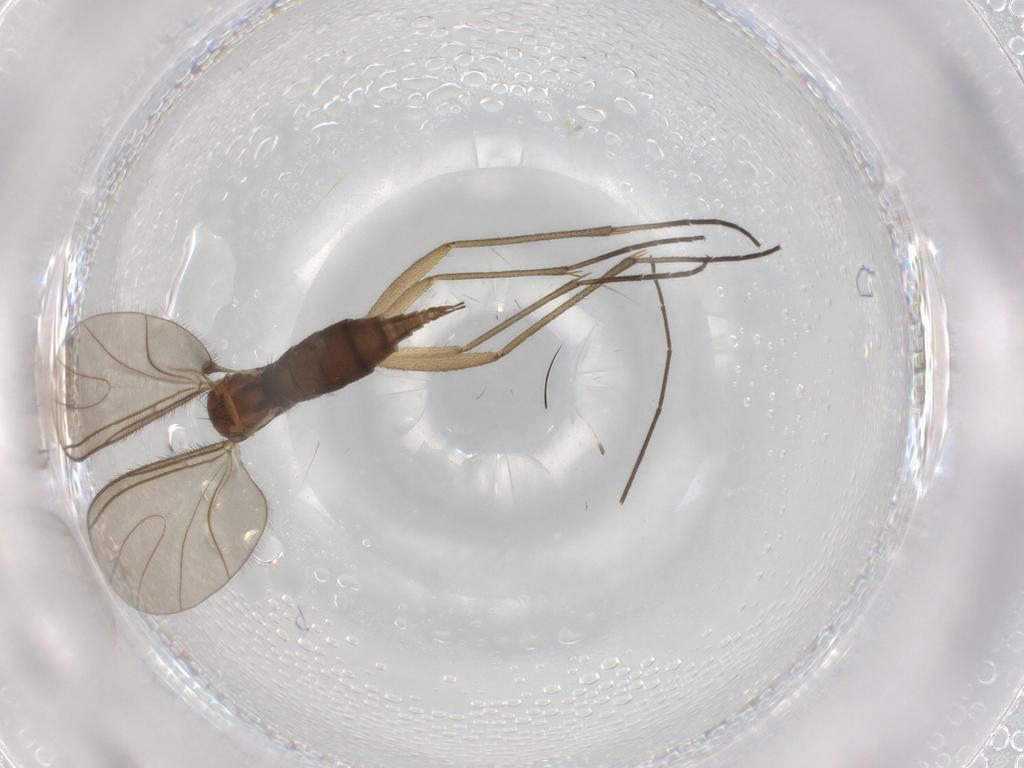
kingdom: Animalia
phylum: Arthropoda
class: Insecta
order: Diptera
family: Sciaridae
